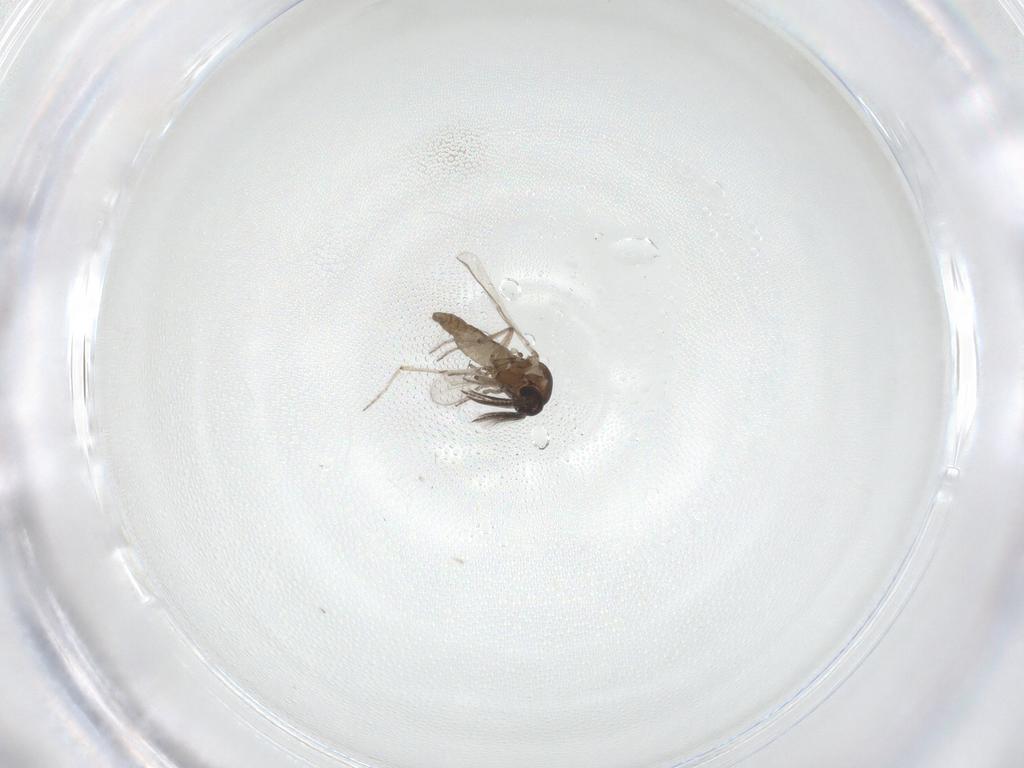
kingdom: Animalia
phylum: Arthropoda
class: Insecta
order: Diptera
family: Ceratopogonidae
